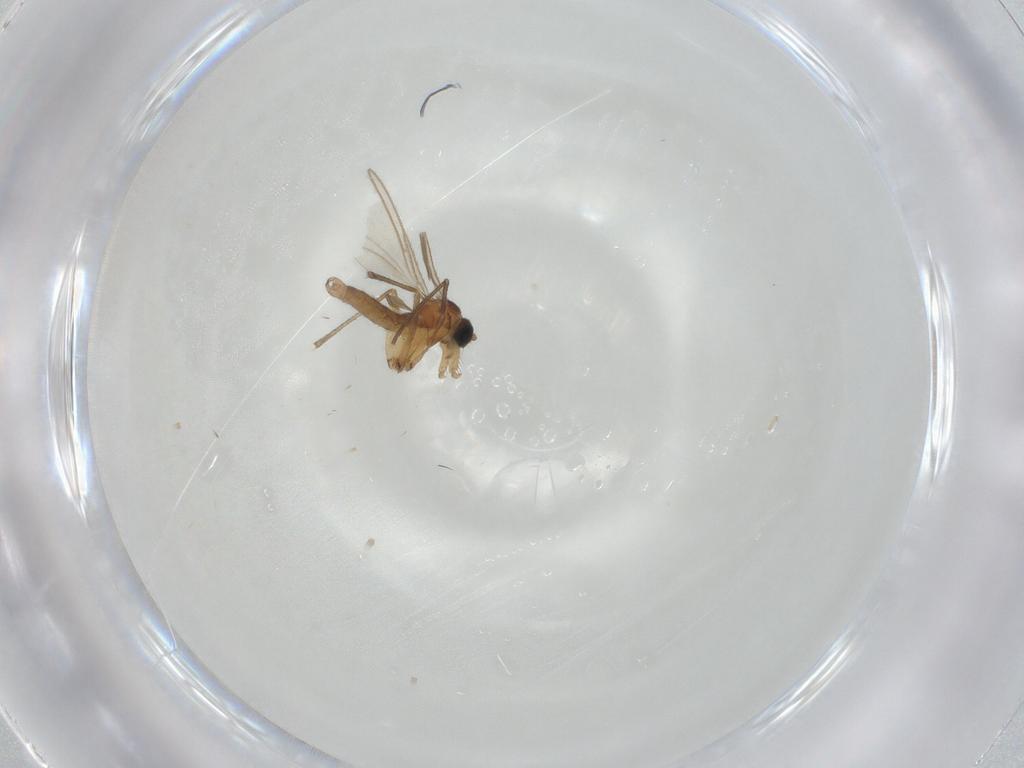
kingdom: Animalia
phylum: Arthropoda
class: Insecta
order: Diptera
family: Sciaridae
